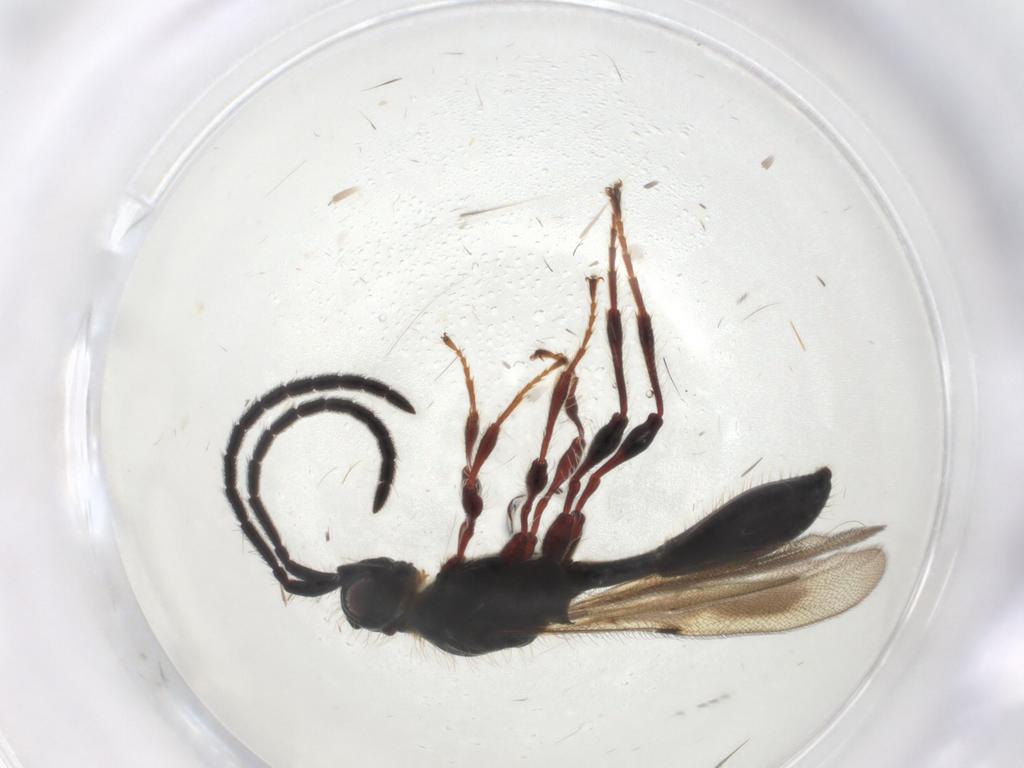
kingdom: Animalia
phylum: Arthropoda
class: Insecta
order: Hymenoptera
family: Diapriidae
